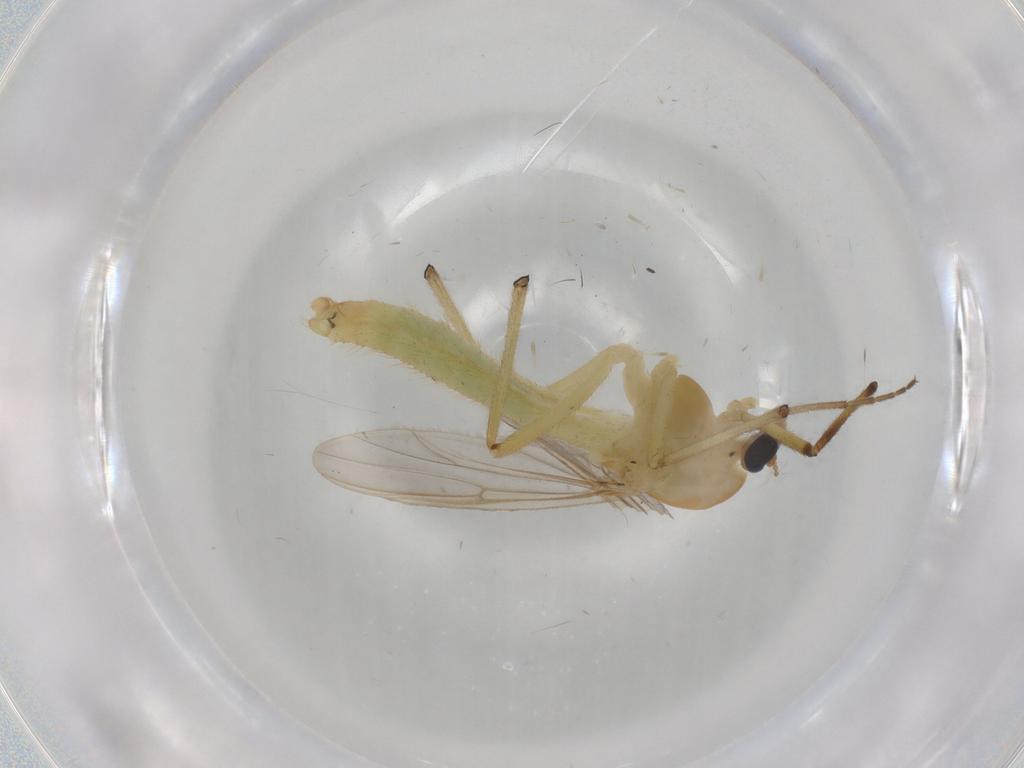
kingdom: Animalia
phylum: Arthropoda
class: Insecta
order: Diptera
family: Chironomidae
